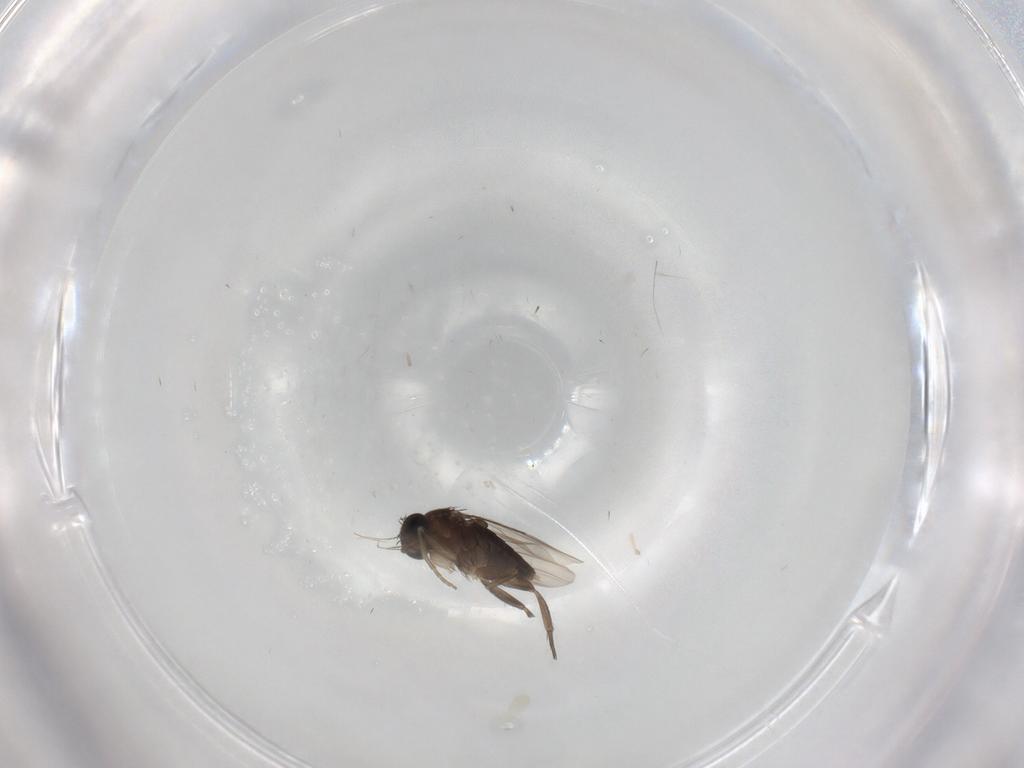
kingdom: Animalia
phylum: Arthropoda
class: Insecta
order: Diptera
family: Phoridae
